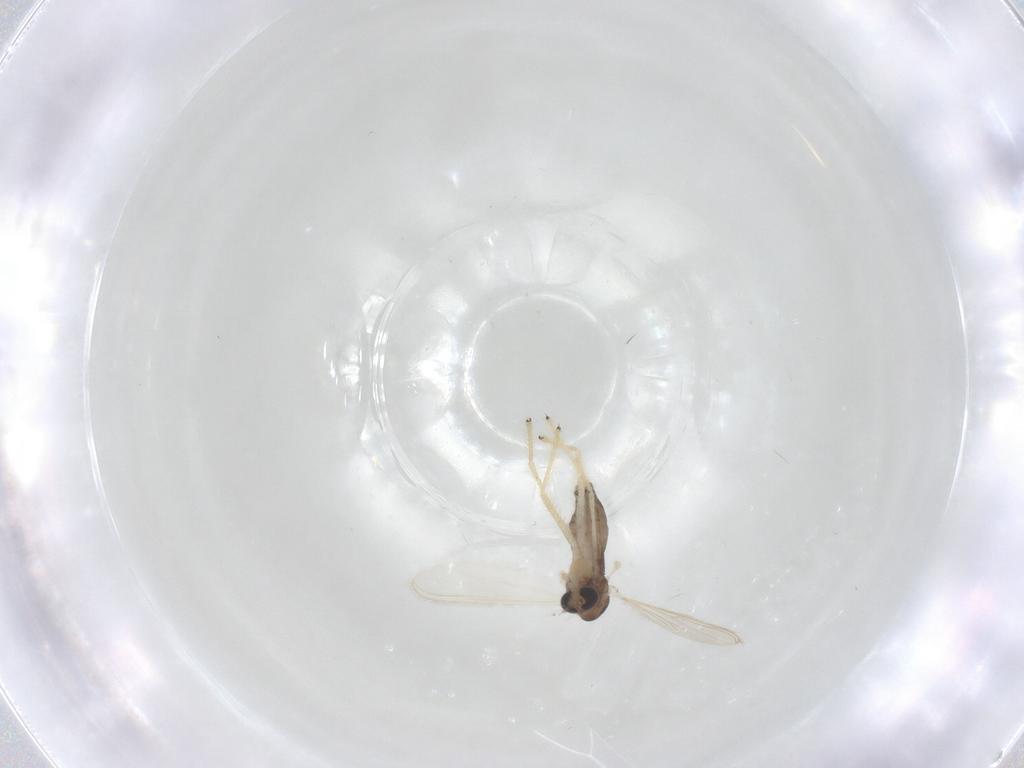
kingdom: Animalia
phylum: Arthropoda
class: Insecta
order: Diptera
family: Chironomidae
